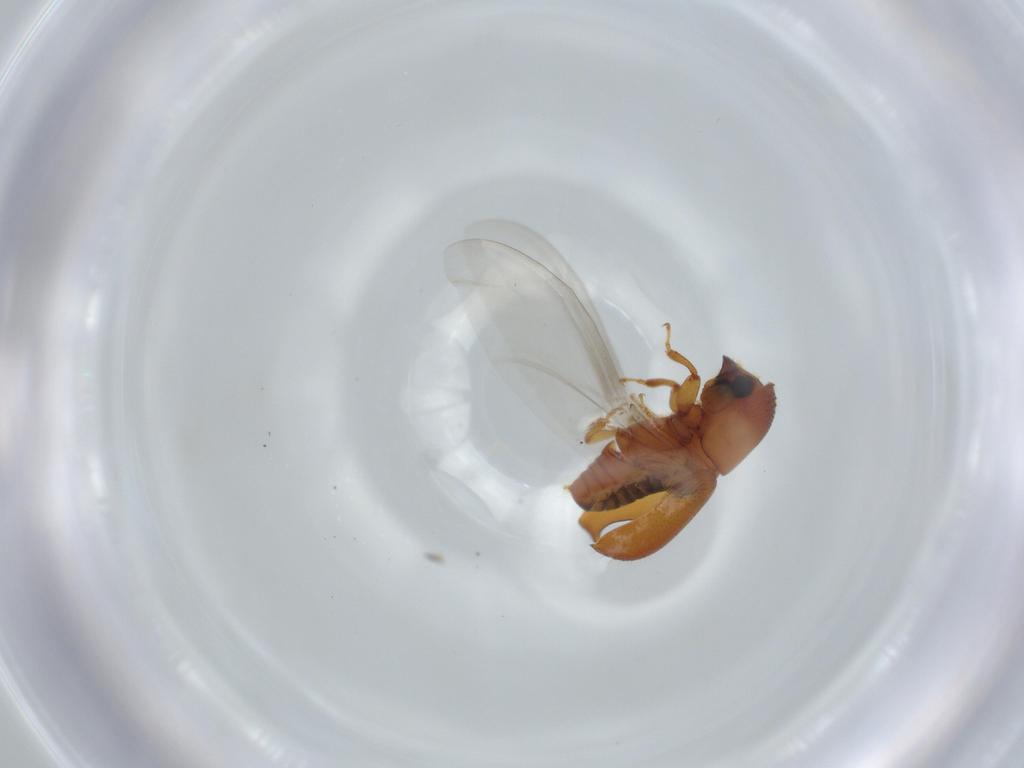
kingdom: Animalia
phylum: Arthropoda
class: Insecta
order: Coleoptera
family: Curculionidae
